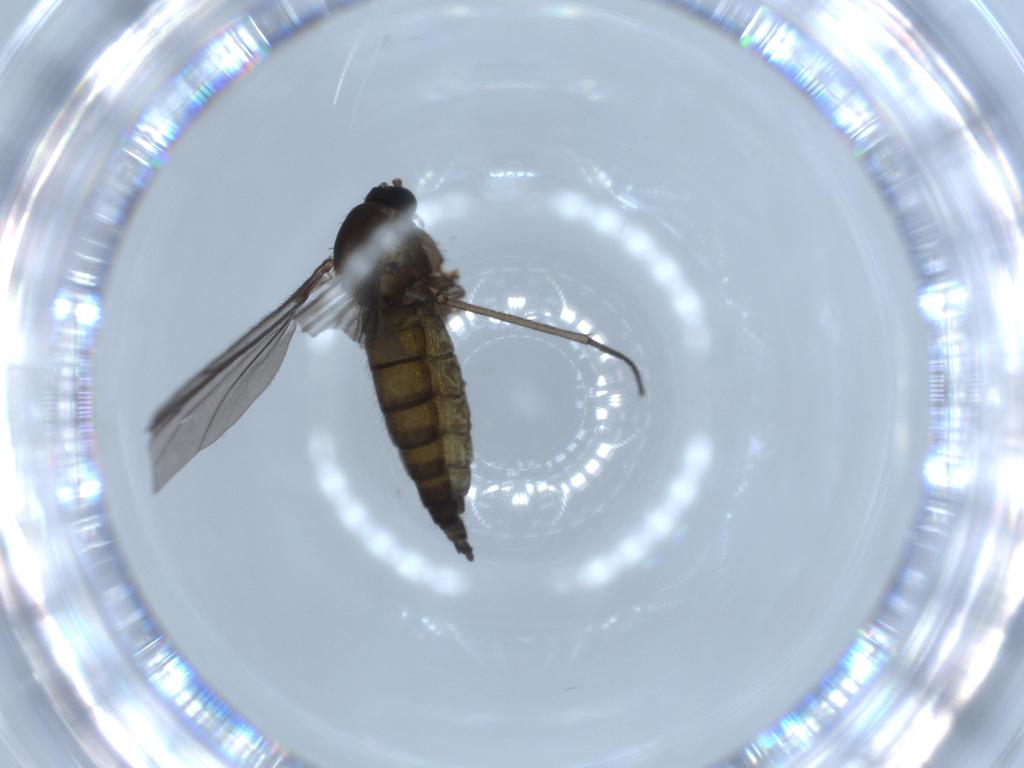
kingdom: Animalia
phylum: Arthropoda
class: Insecta
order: Diptera
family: Sciaridae
